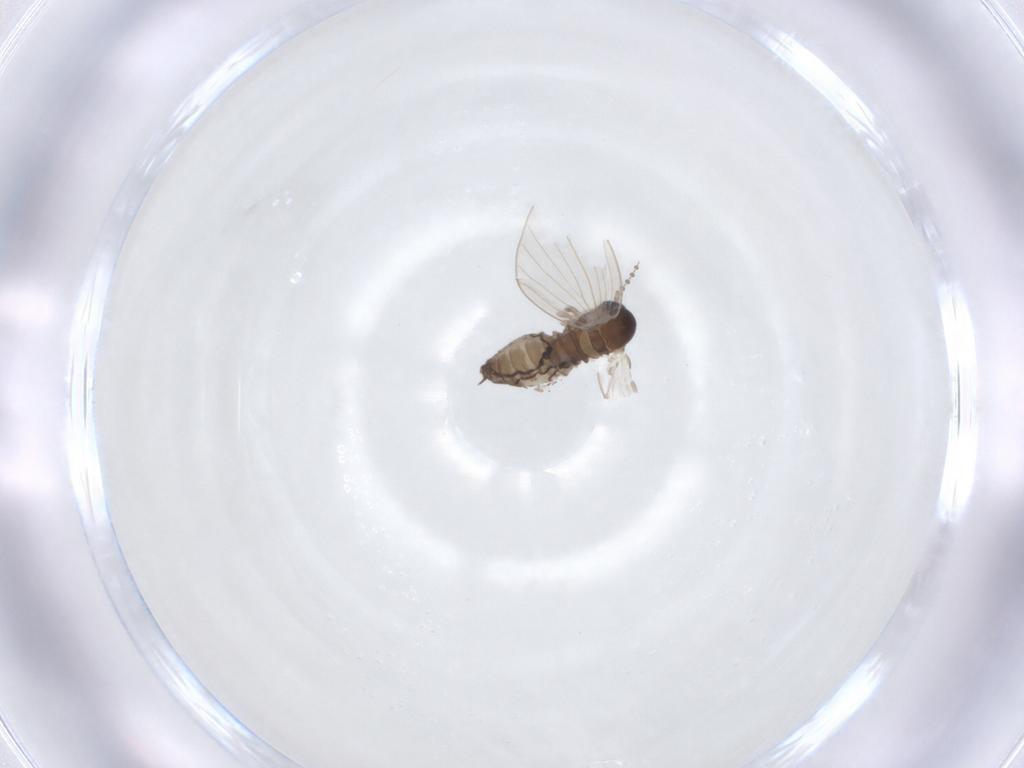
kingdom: Animalia
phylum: Arthropoda
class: Insecta
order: Diptera
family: Psychodidae
